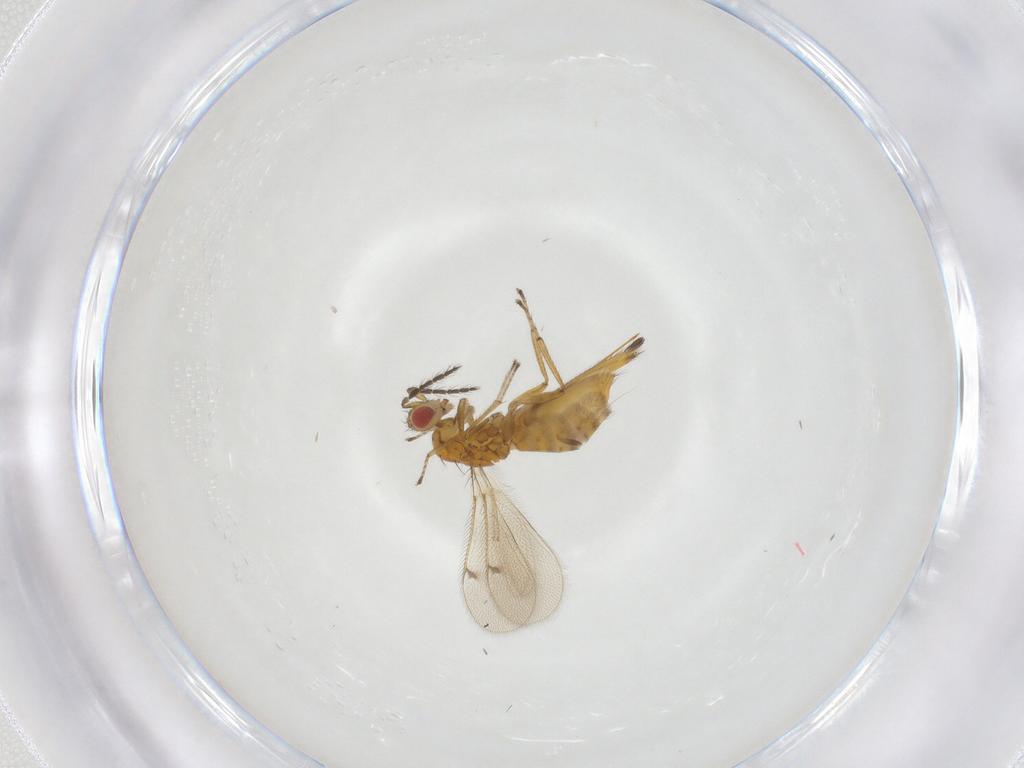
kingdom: Animalia
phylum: Arthropoda
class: Insecta
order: Hymenoptera
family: Eulophidae
